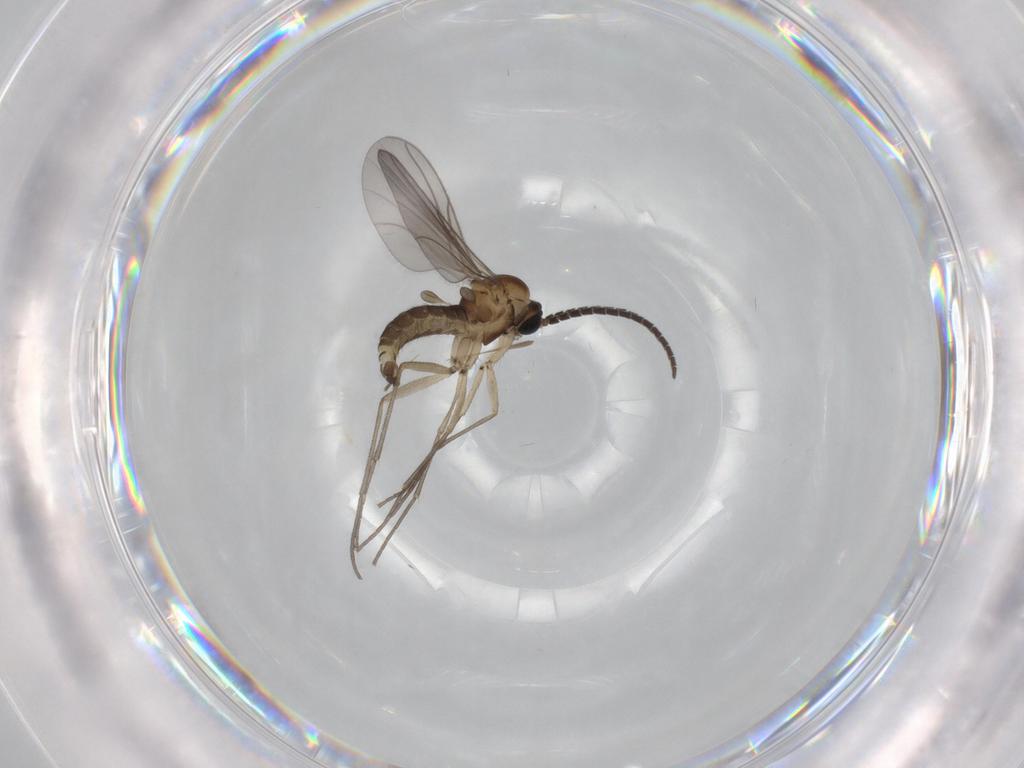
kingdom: Animalia
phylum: Arthropoda
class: Insecta
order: Diptera
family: Sciaridae
